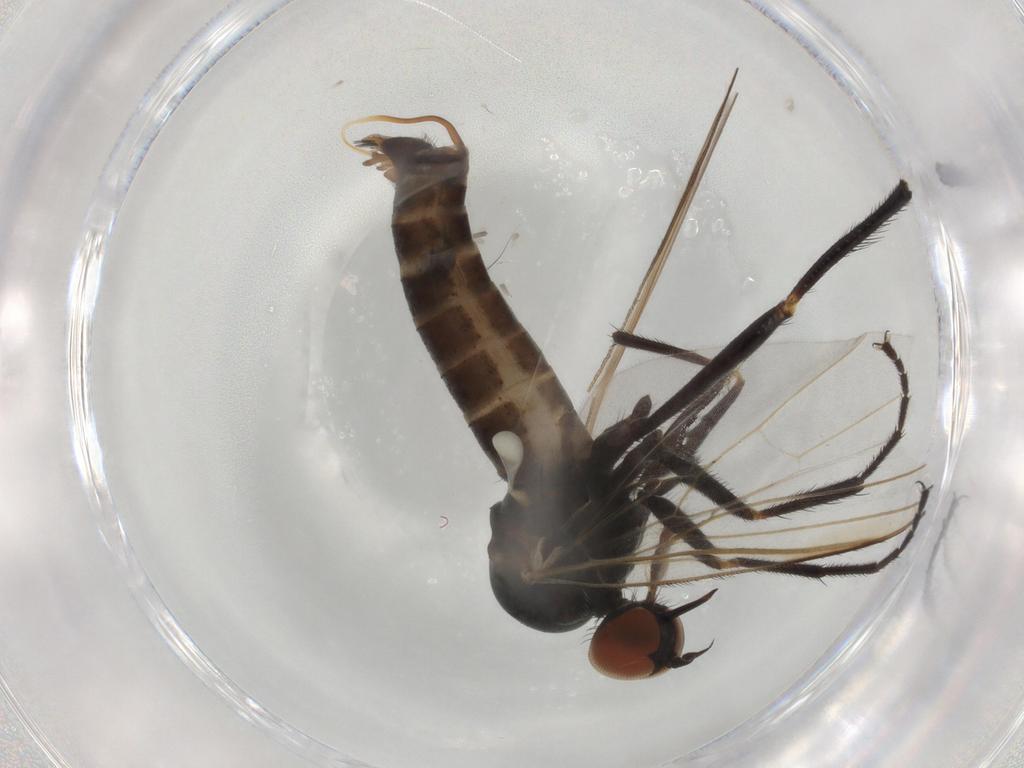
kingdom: Animalia
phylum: Arthropoda
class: Insecta
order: Diptera
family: Empididae
